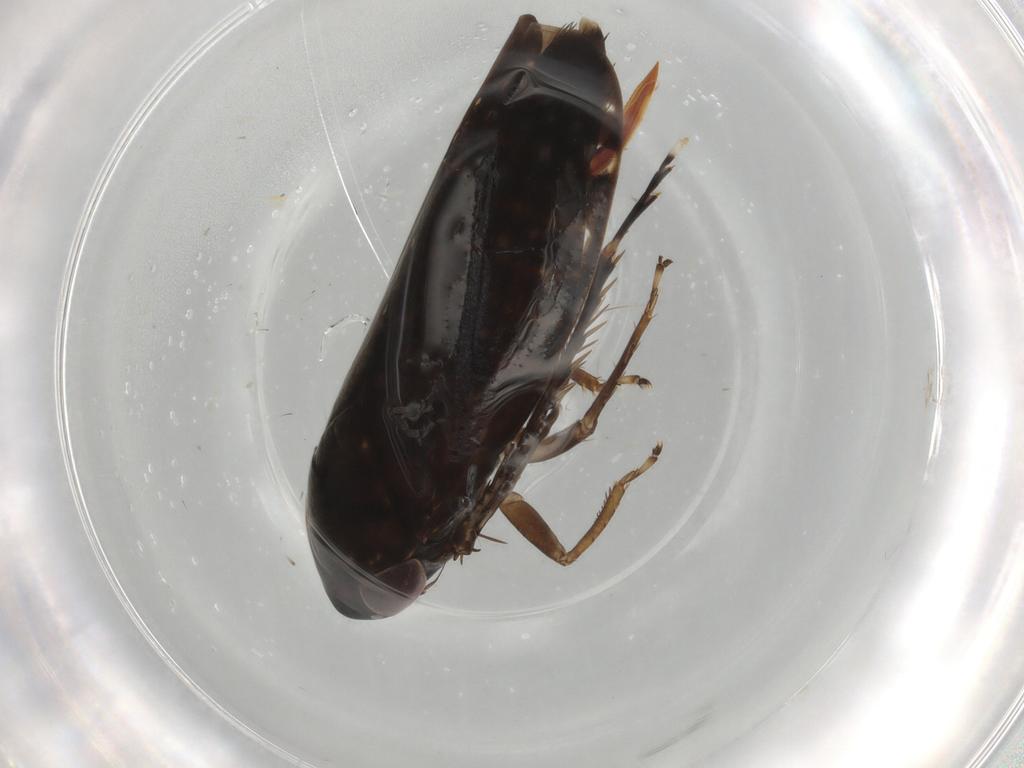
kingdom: Animalia
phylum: Arthropoda
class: Insecta
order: Hemiptera
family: Cicadellidae
